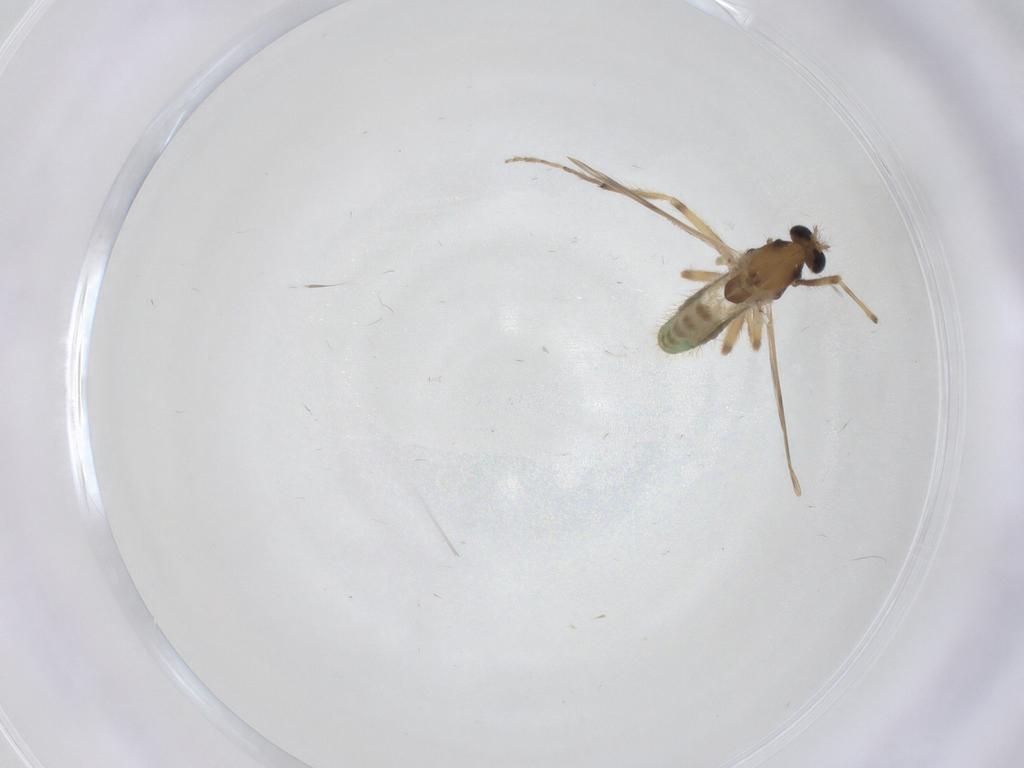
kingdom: Animalia
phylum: Arthropoda
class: Insecta
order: Diptera
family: Cecidomyiidae
